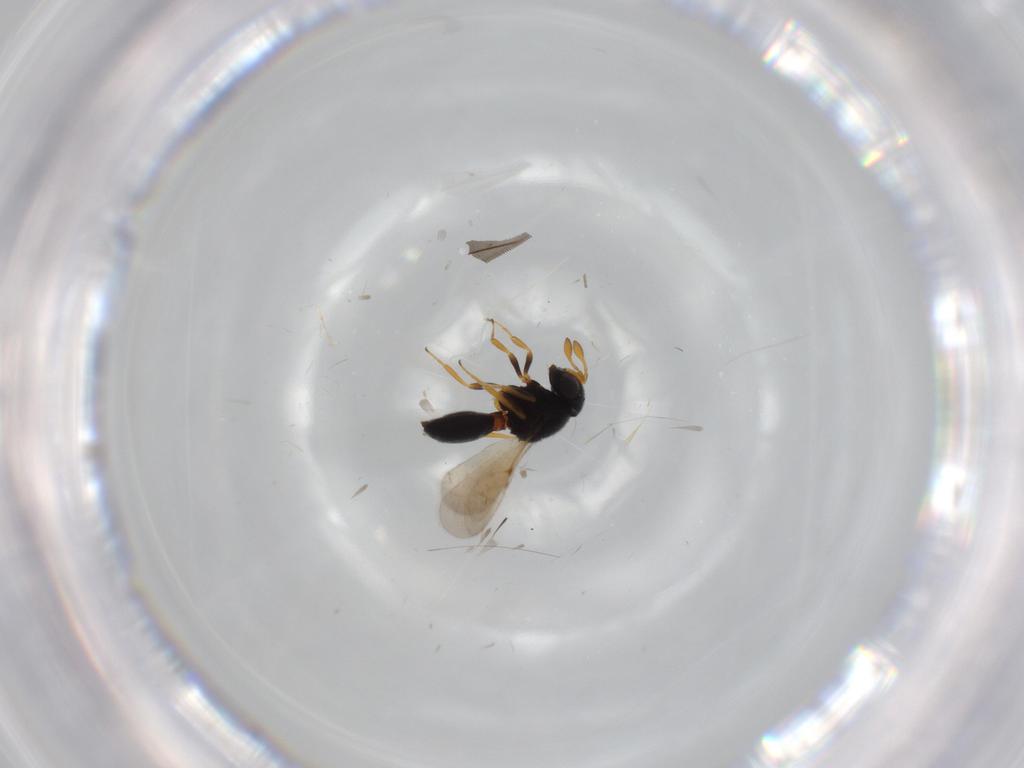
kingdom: Animalia
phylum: Arthropoda
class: Insecta
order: Hymenoptera
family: Scelionidae
